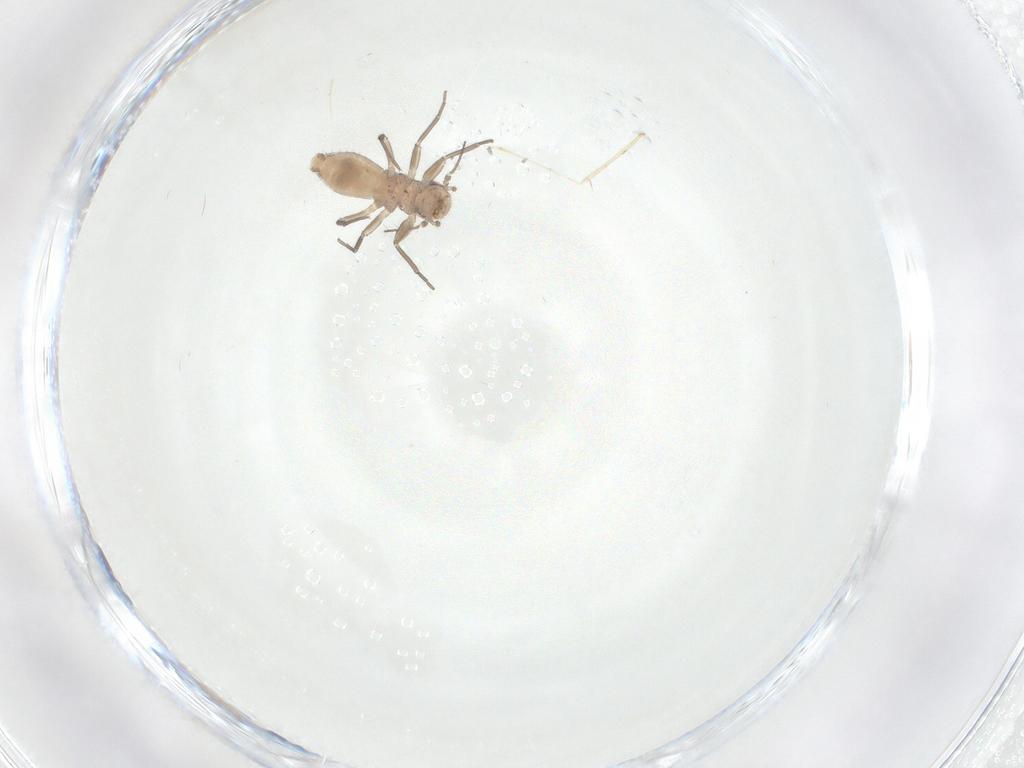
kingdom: Animalia
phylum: Arthropoda
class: Insecta
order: Psocodea
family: Mesopsocidae
